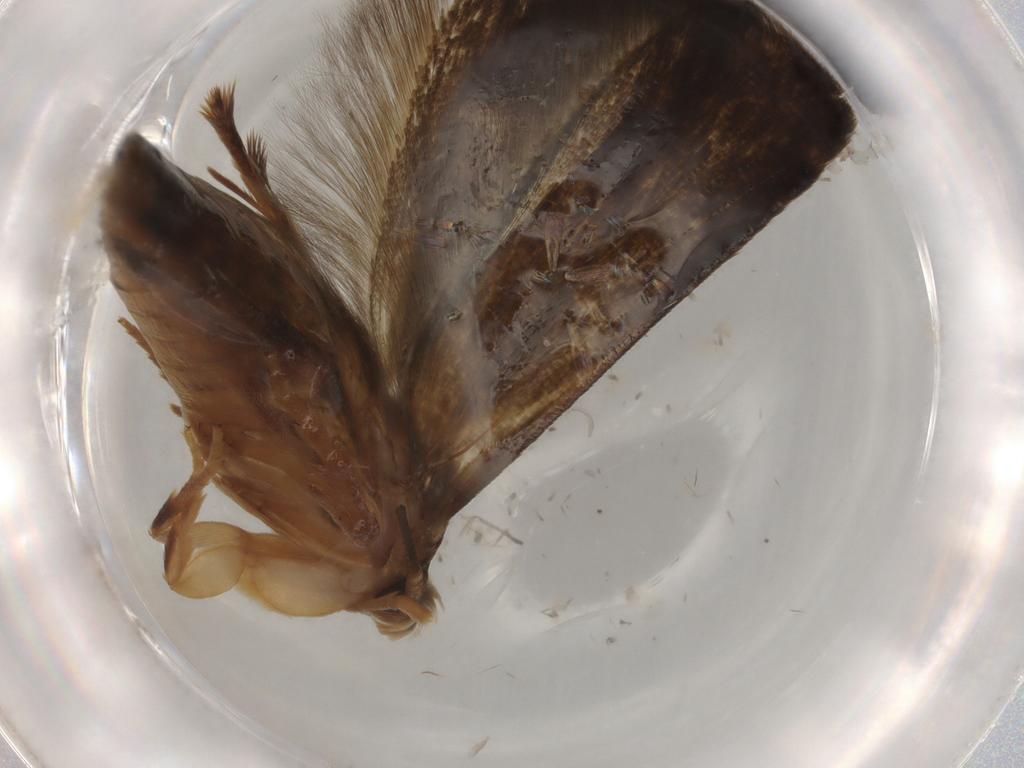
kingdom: Animalia
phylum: Arthropoda
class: Insecta
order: Lepidoptera
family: Tineidae
